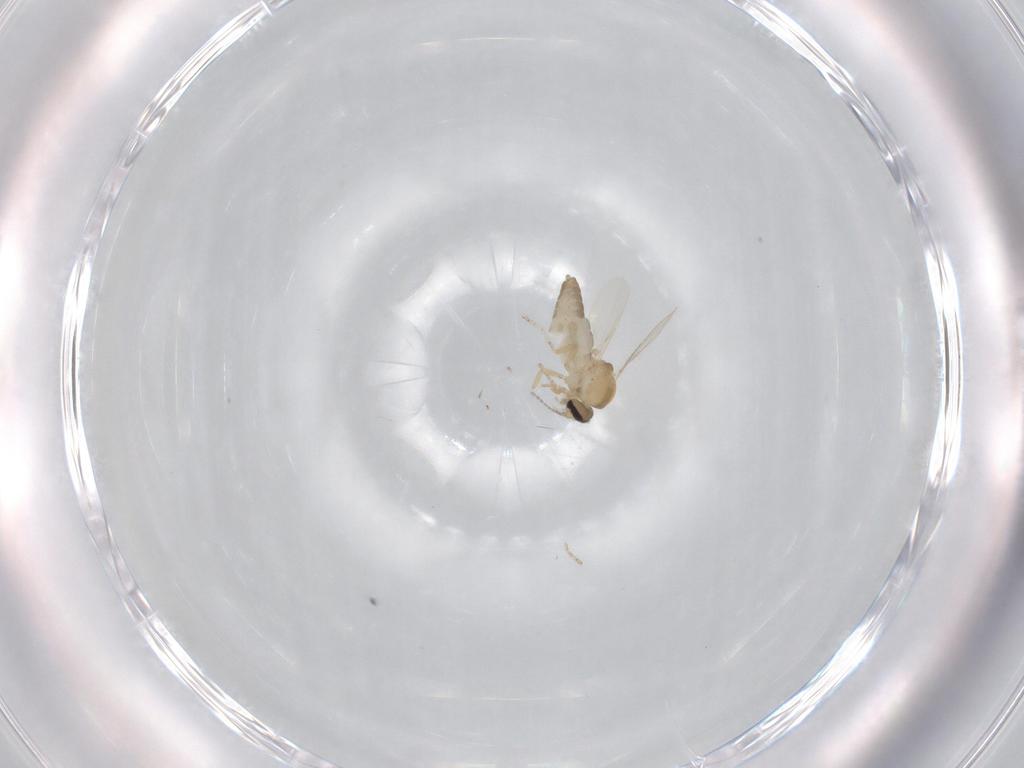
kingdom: Animalia
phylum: Arthropoda
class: Insecta
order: Diptera
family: Ceratopogonidae
